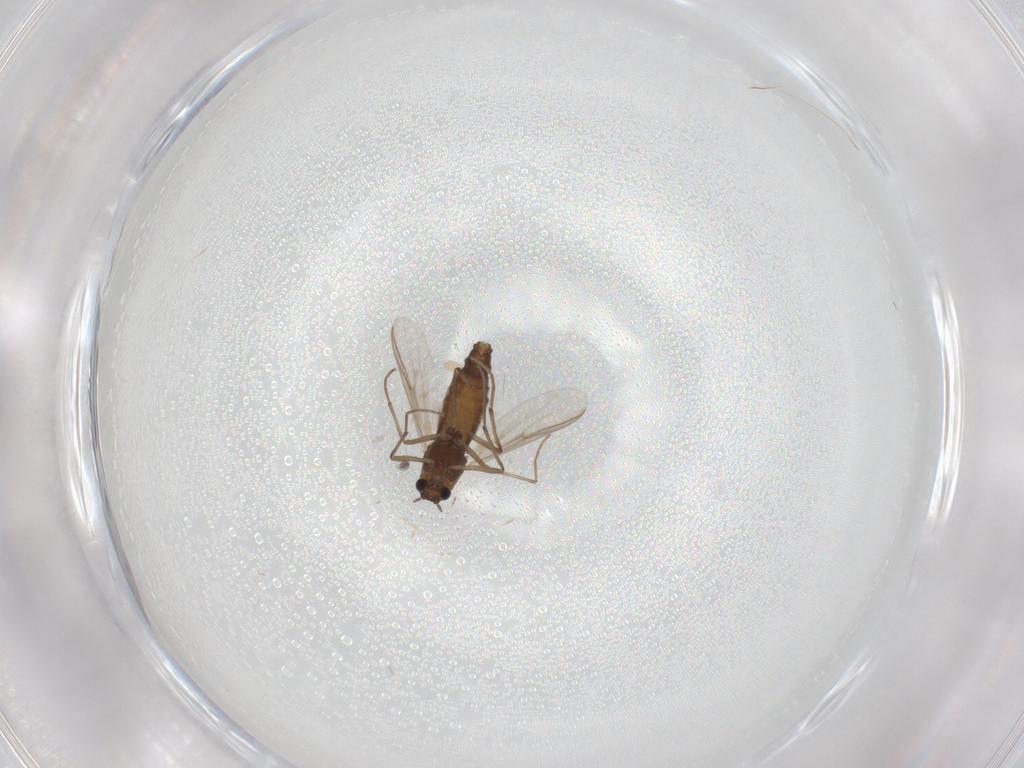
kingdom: Animalia
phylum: Arthropoda
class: Insecta
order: Diptera
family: Chironomidae
